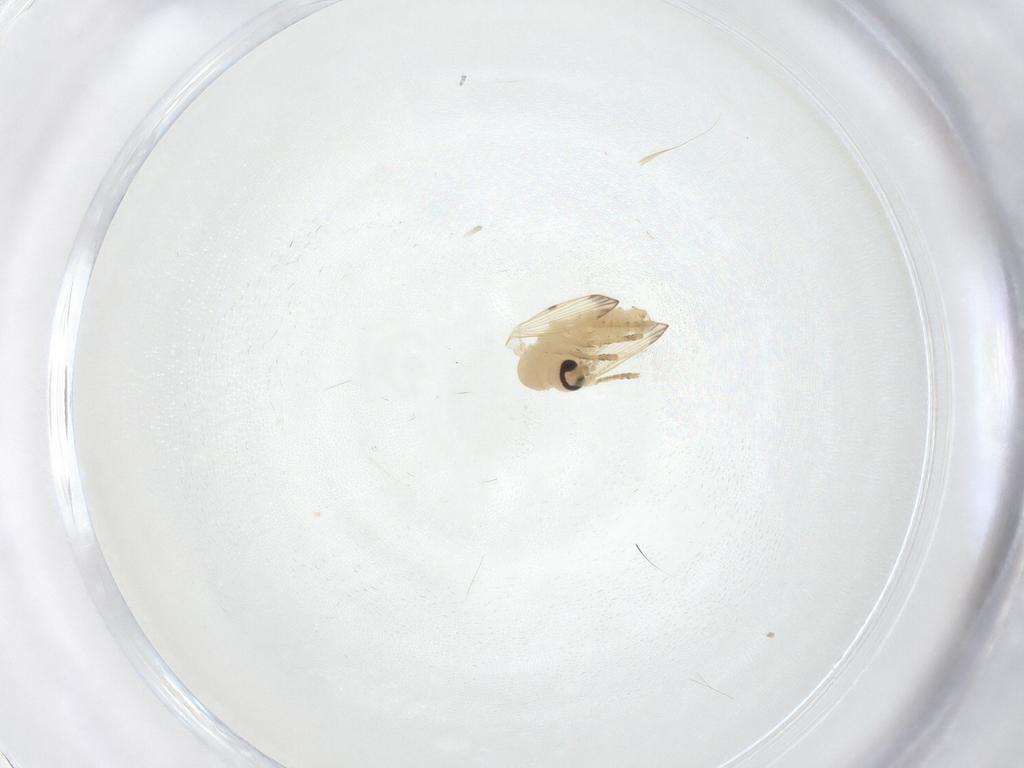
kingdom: Animalia
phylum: Arthropoda
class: Insecta
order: Diptera
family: Psychodidae
